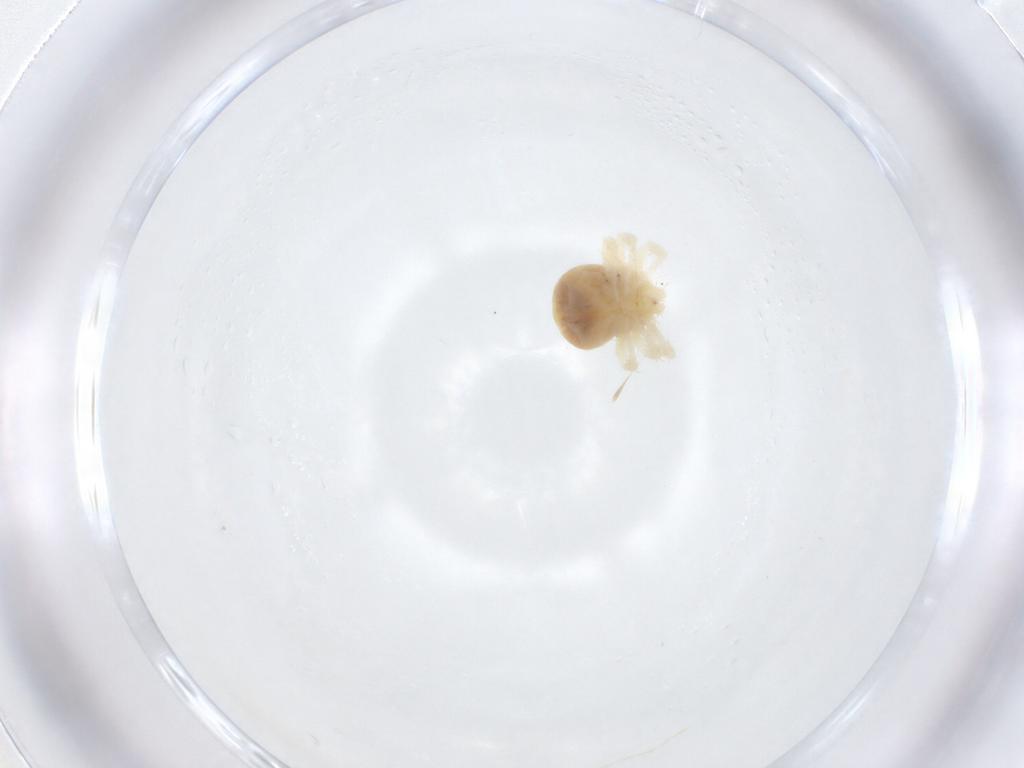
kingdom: Animalia
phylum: Arthropoda
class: Arachnida
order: Trombidiformes
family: Anystidae
